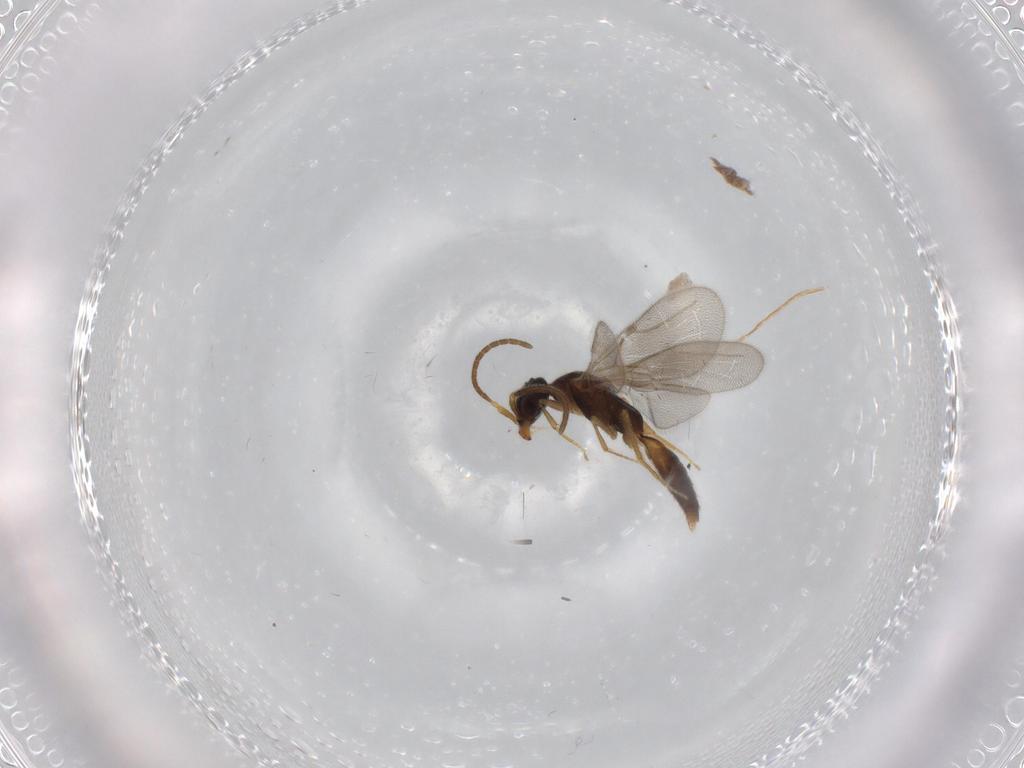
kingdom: Animalia
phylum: Arthropoda
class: Insecta
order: Hymenoptera
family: Bethylidae
